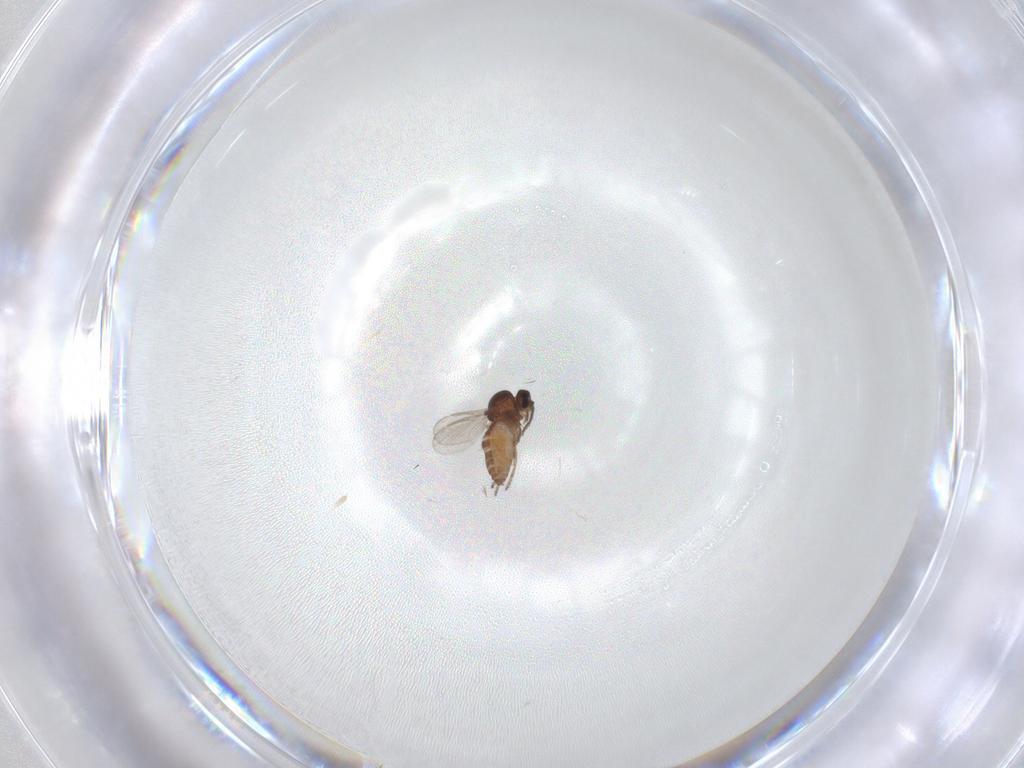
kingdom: Animalia
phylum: Arthropoda
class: Insecta
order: Diptera
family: Ceratopogonidae
